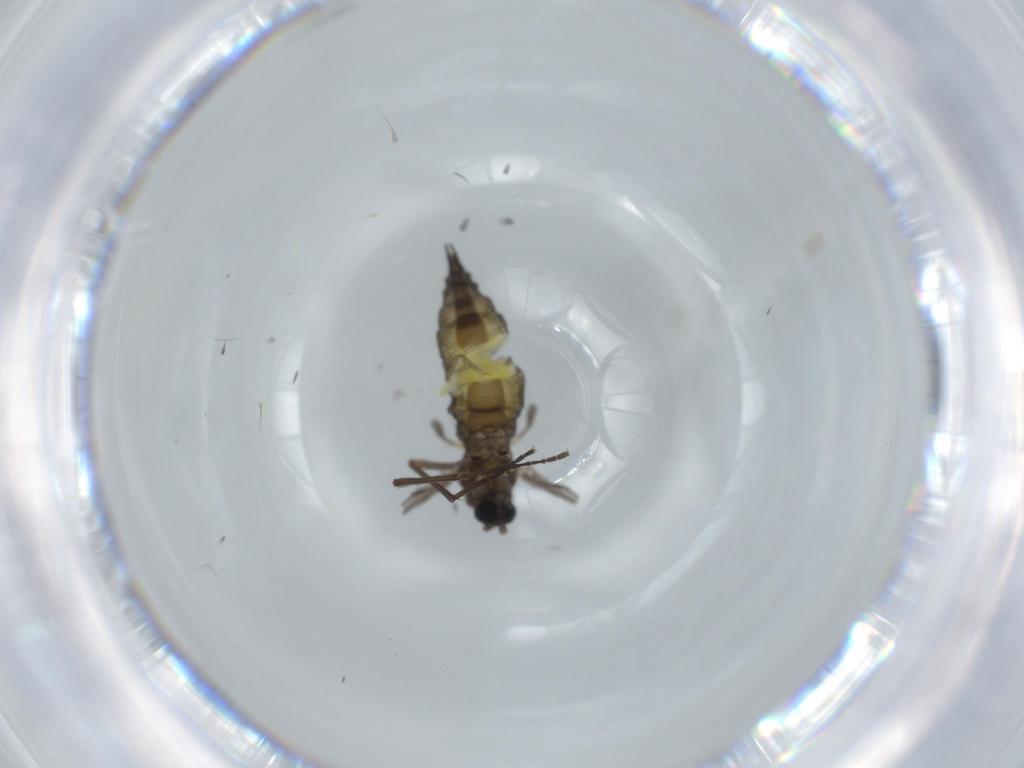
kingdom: Animalia
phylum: Arthropoda
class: Insecta
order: Diptera
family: Sciaridae
